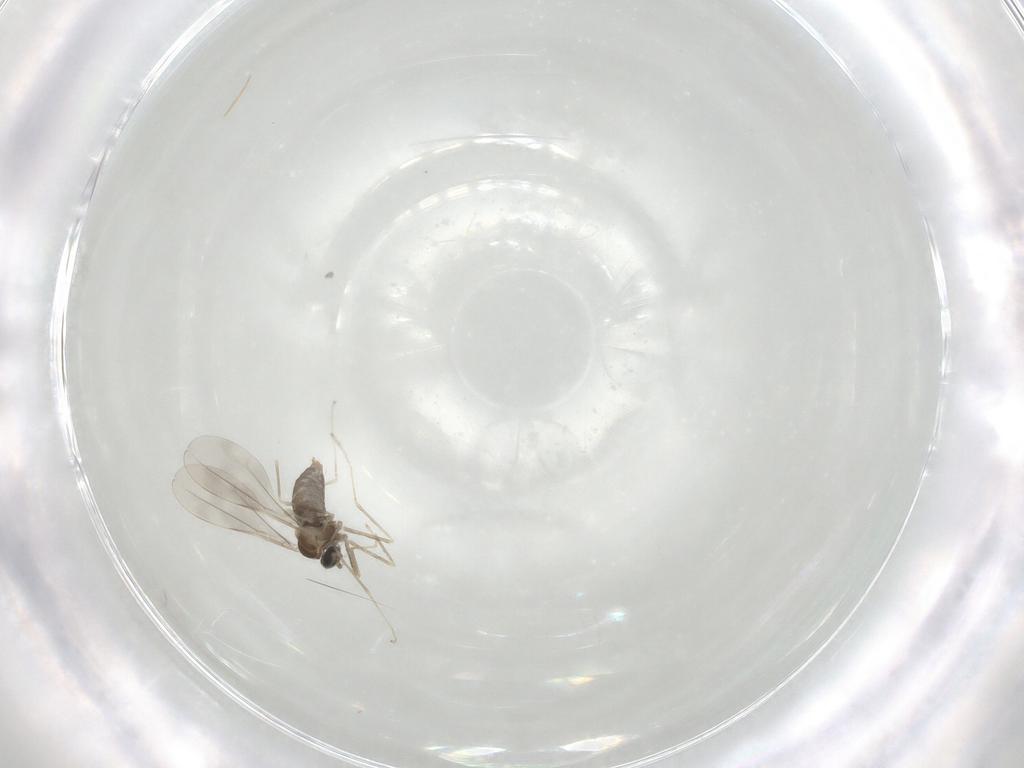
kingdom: Animalia
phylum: Arthropoda
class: Insecta
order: Diptera
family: Cecidomyiidae
